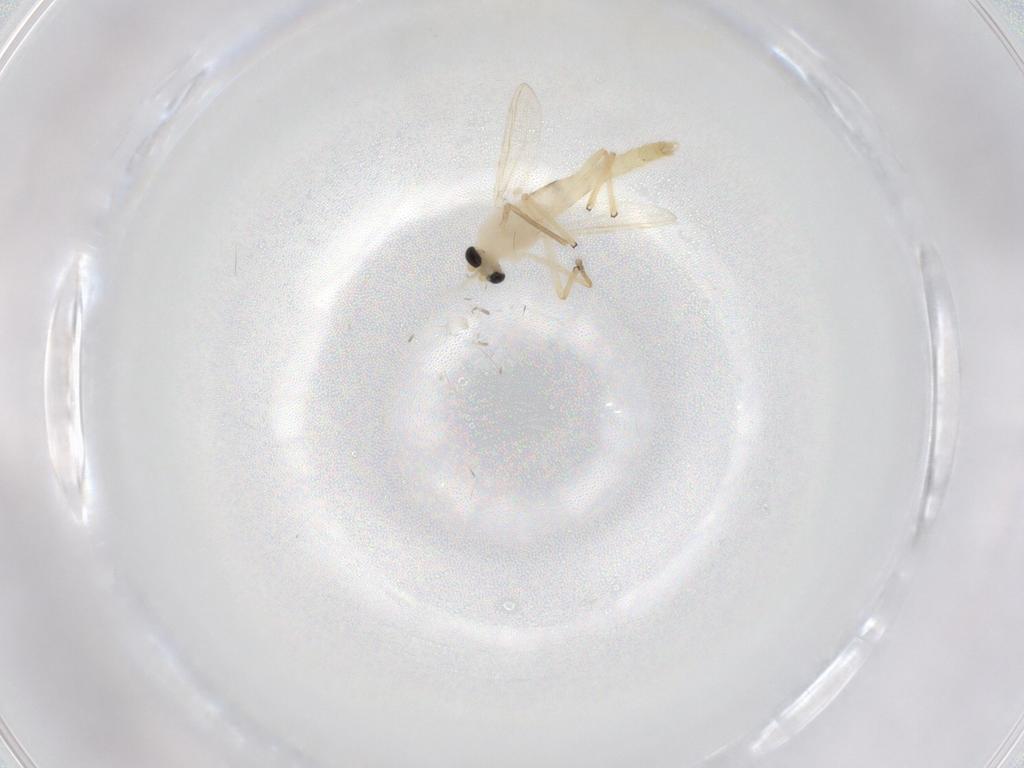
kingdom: Animalia
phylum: Arthropoda
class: Insecta
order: Diptera
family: Chironomidae
